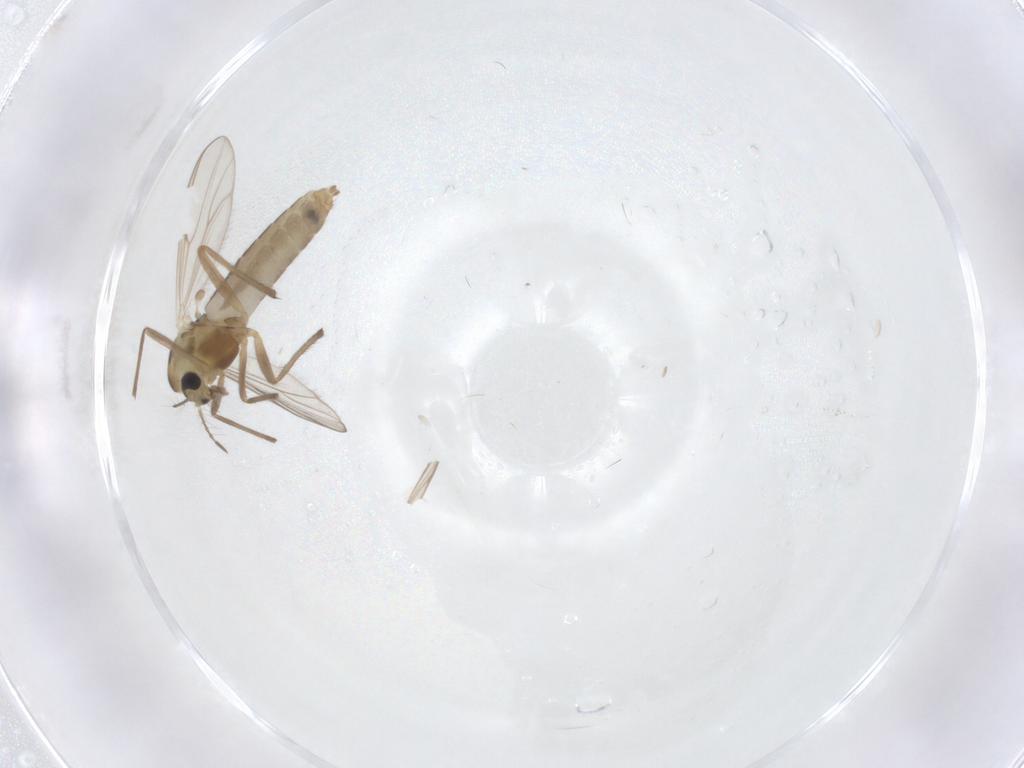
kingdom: Animalia
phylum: Arthropoda
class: Insecta
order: Diptera
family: Chironomidae
